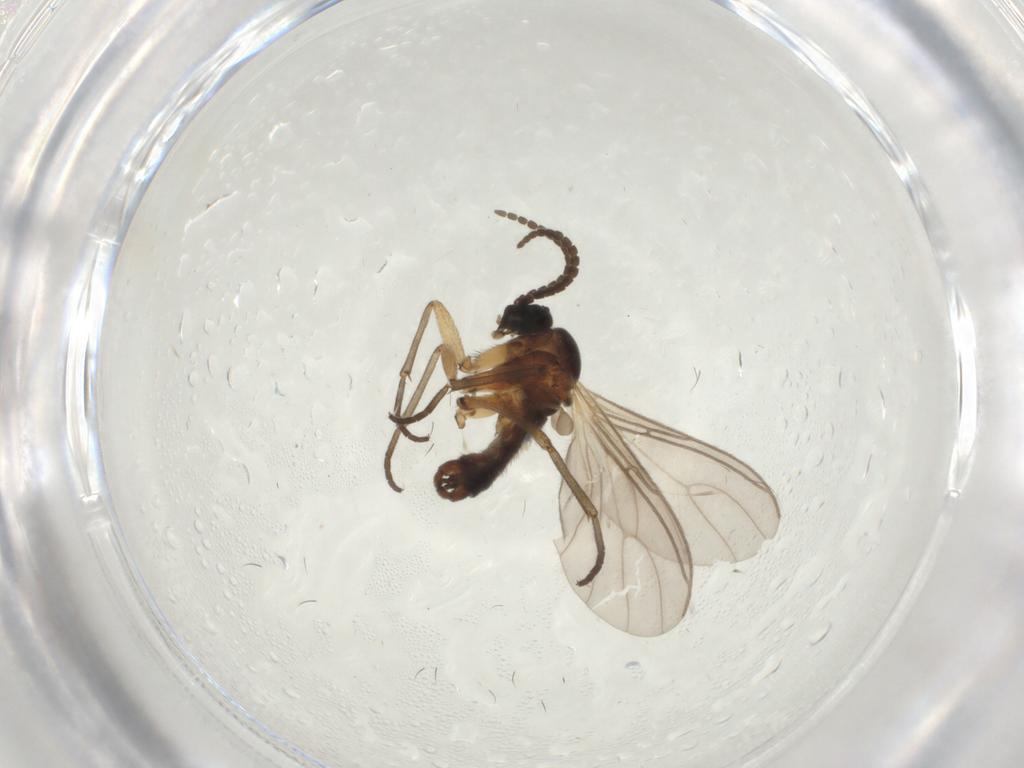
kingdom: Animalia
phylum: Arthropoda
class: Insecta
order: Diptera
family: Sciaridae
